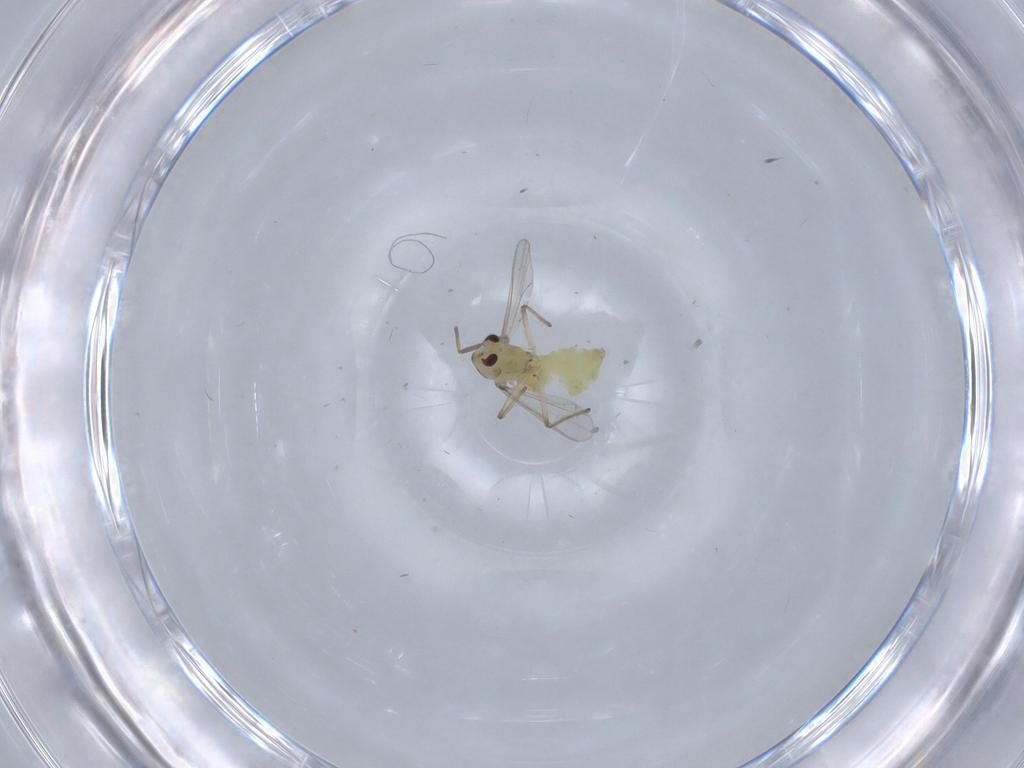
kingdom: Animalia
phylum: Arthropoda
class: Insecta
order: Diptera
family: Chironomidae
